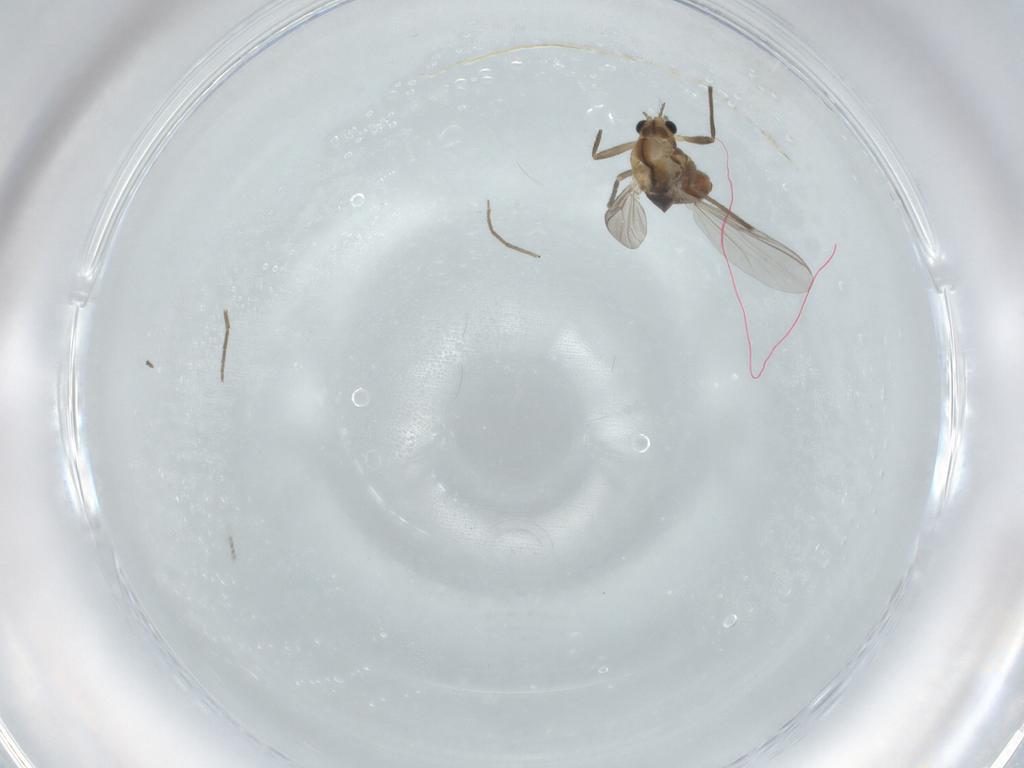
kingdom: Animalia
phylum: Arthropoda
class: Insecta
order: Diptera
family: Chironomidae
